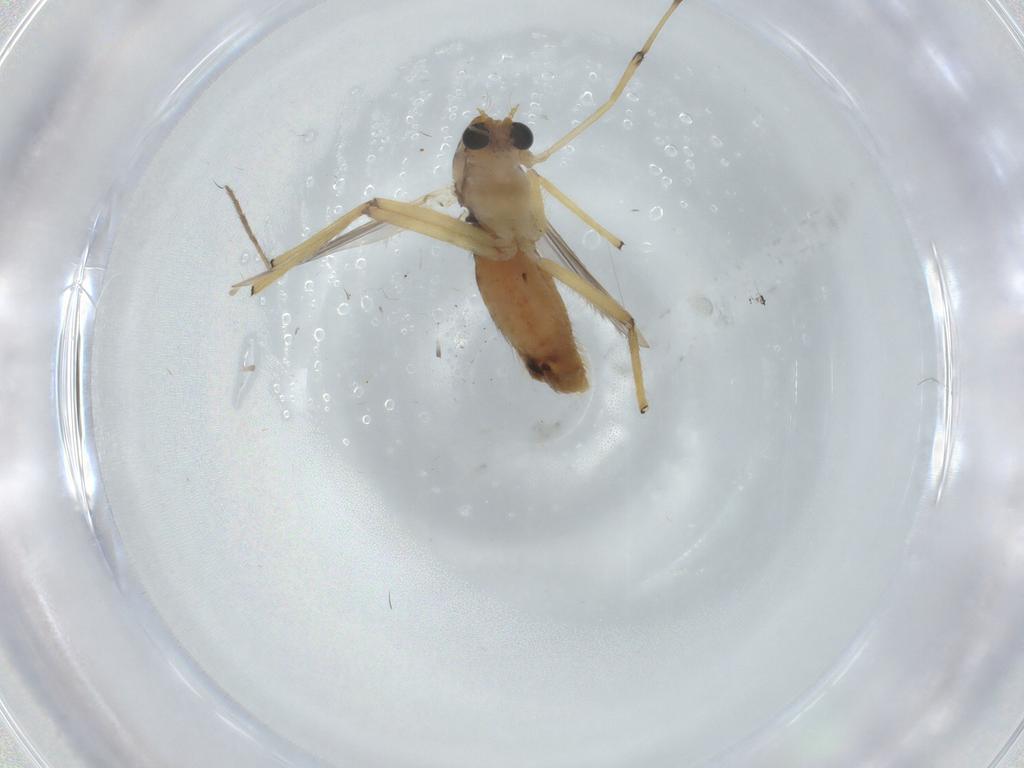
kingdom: Animalia
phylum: Arthropoda
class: Insecta
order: Diptera
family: Chironomidae
